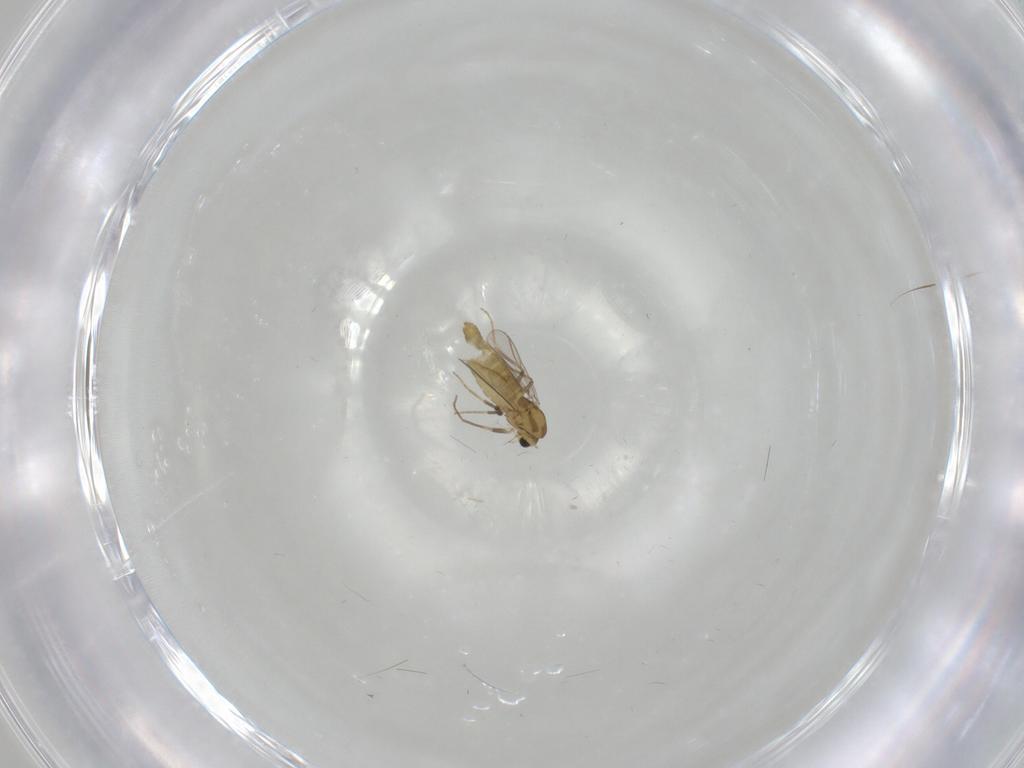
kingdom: Animalia
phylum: Arthropoda
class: Insecta
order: Diptera
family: Chironomidae
